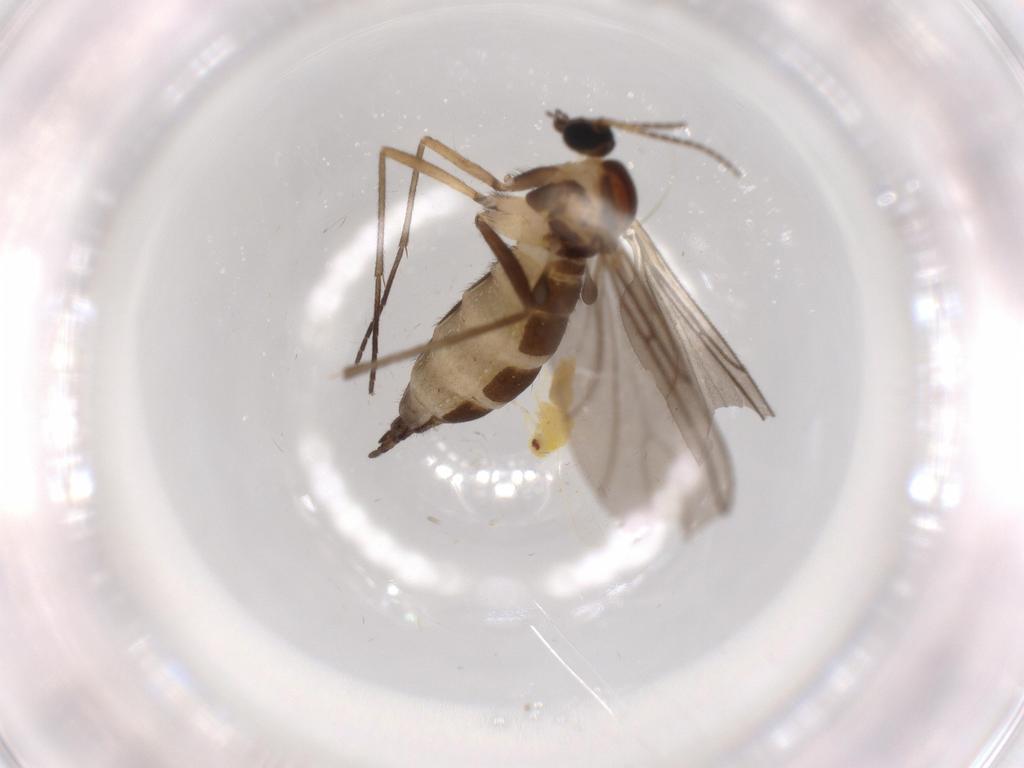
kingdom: Animalia
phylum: Arthropoda
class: Insecta
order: Diptera
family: Sciaridae
